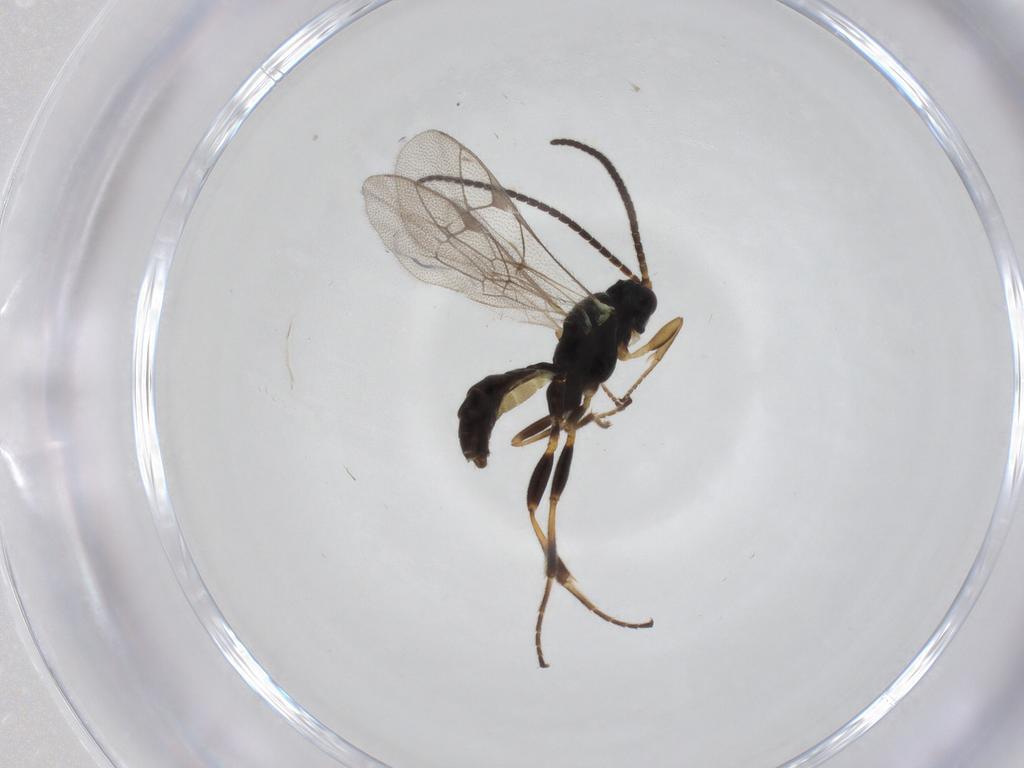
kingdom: Animalia
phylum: Arthropoda
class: Insecta
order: Hymenoptera
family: Ichneumonidae
